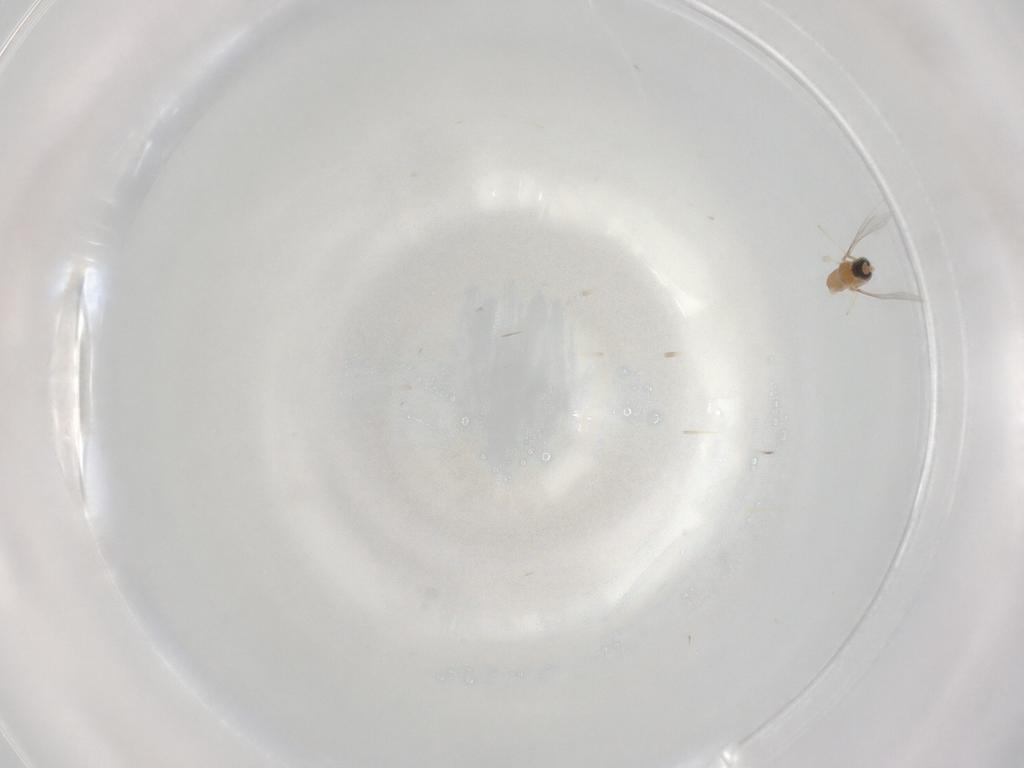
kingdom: Animalia
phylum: Arthropoda
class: Insecta
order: Diptera
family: Cecidomyiidae
